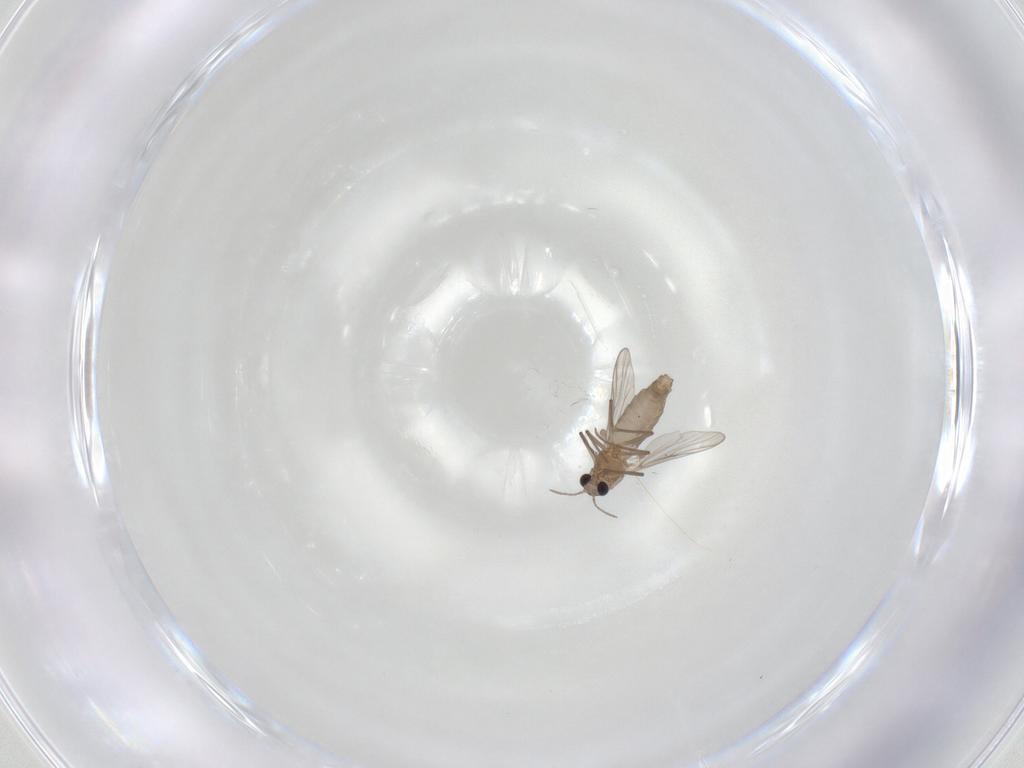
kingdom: Animalia
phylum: Arthropoda
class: Insecta
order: Diptera
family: Chironomidae
